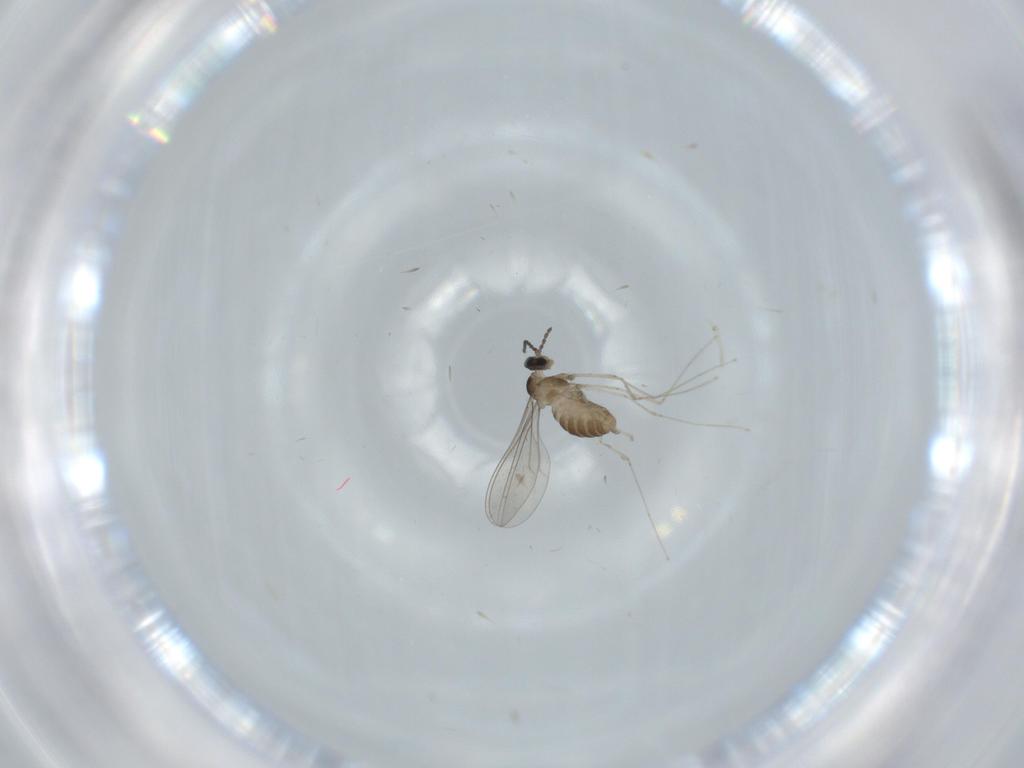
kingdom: Animalia
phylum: Arthropoda
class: Insecta
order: Diptera
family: Cecidomyiidae
